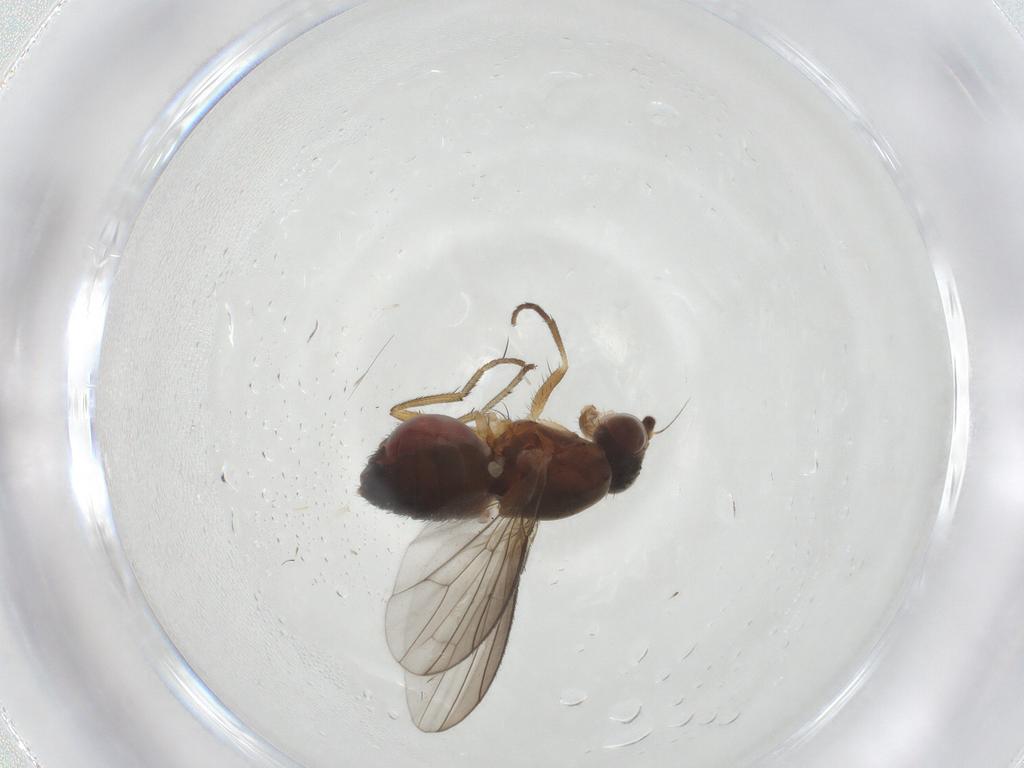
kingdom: Animalia
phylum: Arthropoda
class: Insecta
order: Diptera
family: Heleomyzidae
